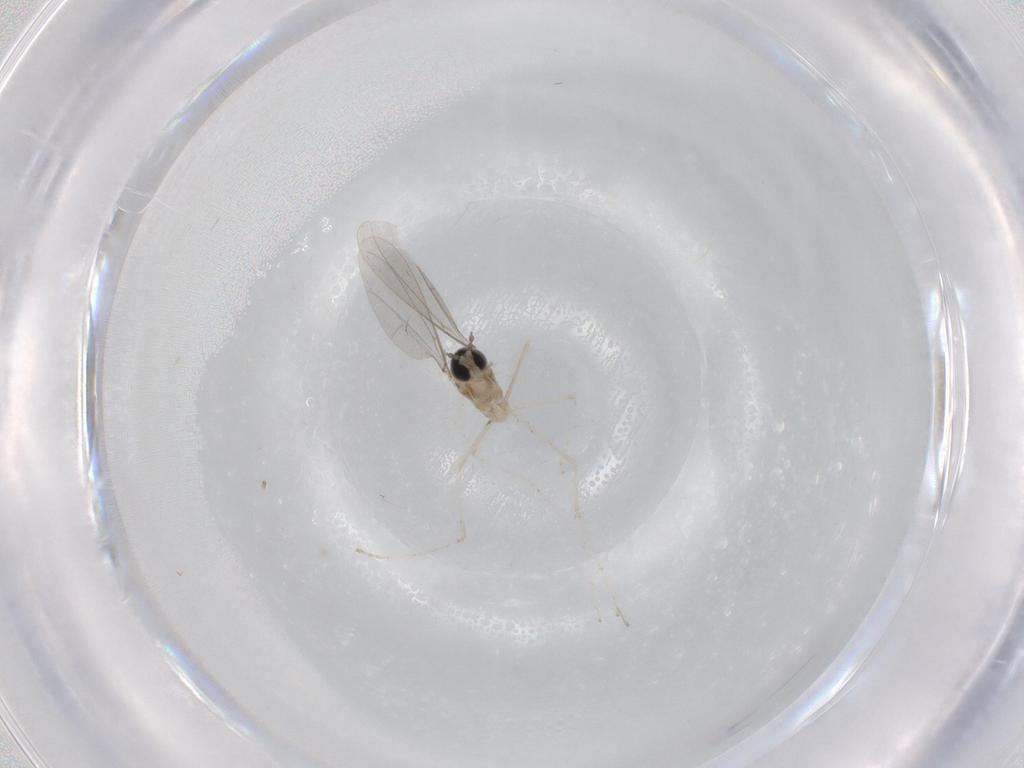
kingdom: Animalia
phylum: Arthropoda
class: Insecta
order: Diptera
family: Cecidomyiidae
